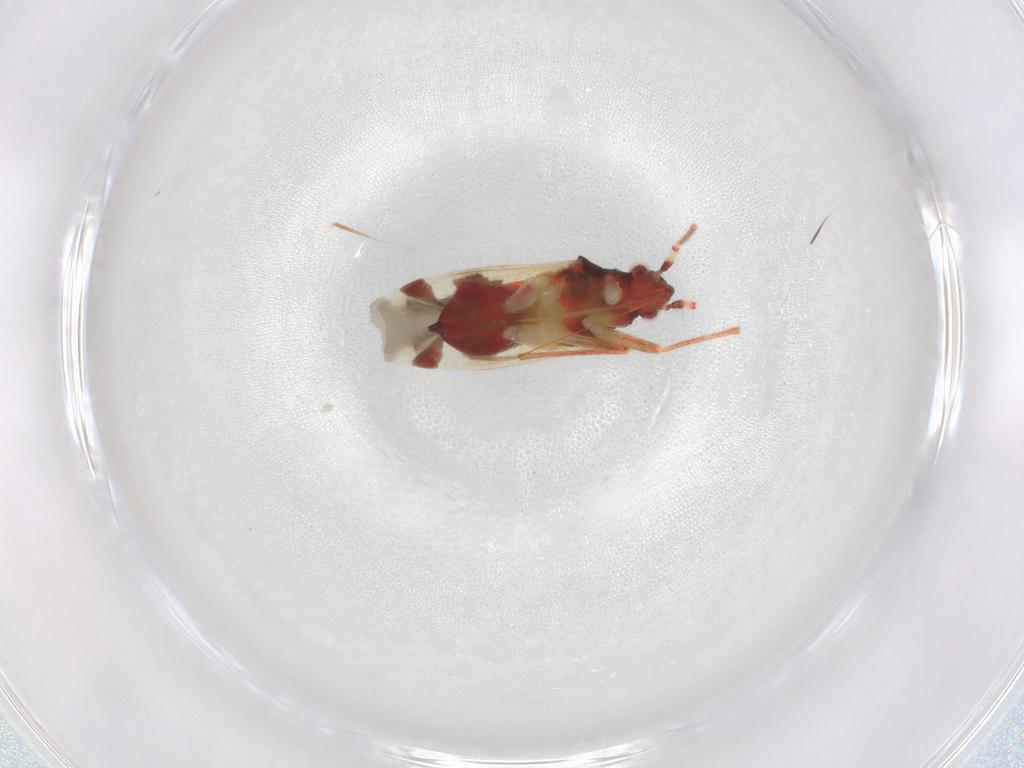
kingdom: Animalia
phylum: Arthropoda
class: Insecta
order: Hemiptera
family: Miridae
